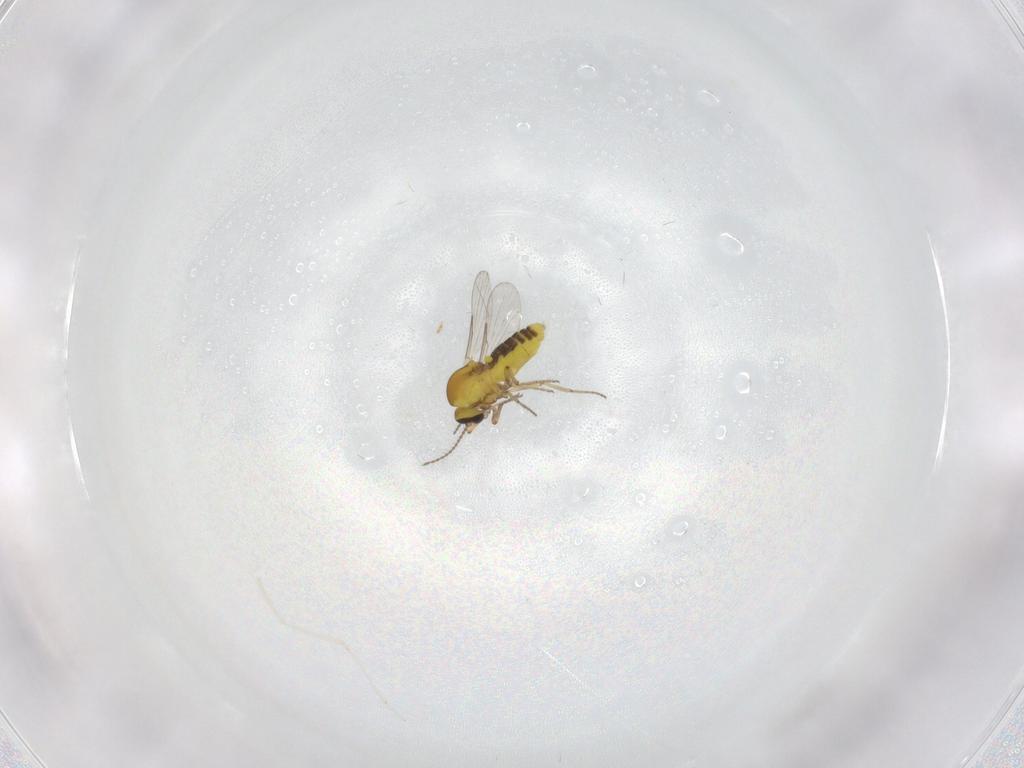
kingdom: Animalia
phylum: Arthropoda
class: Insecta
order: Diptera
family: Cecidomyiidae
